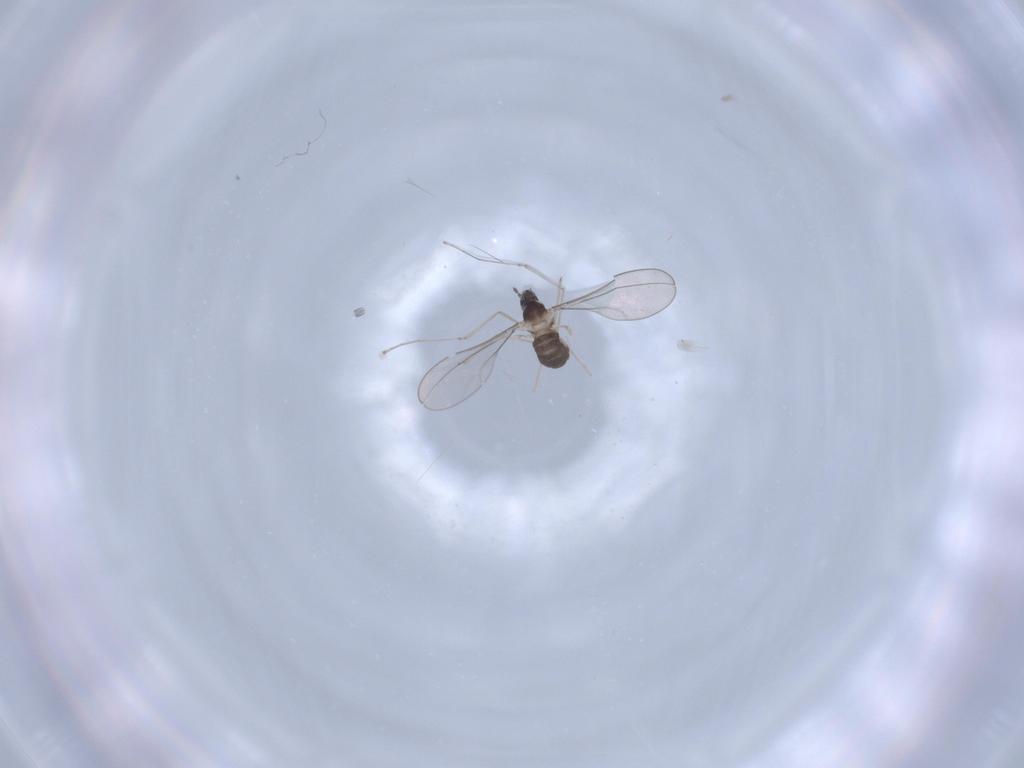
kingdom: Animalia
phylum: Arthropoda
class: Insecta
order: Diptera
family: Cecidomyiidae
